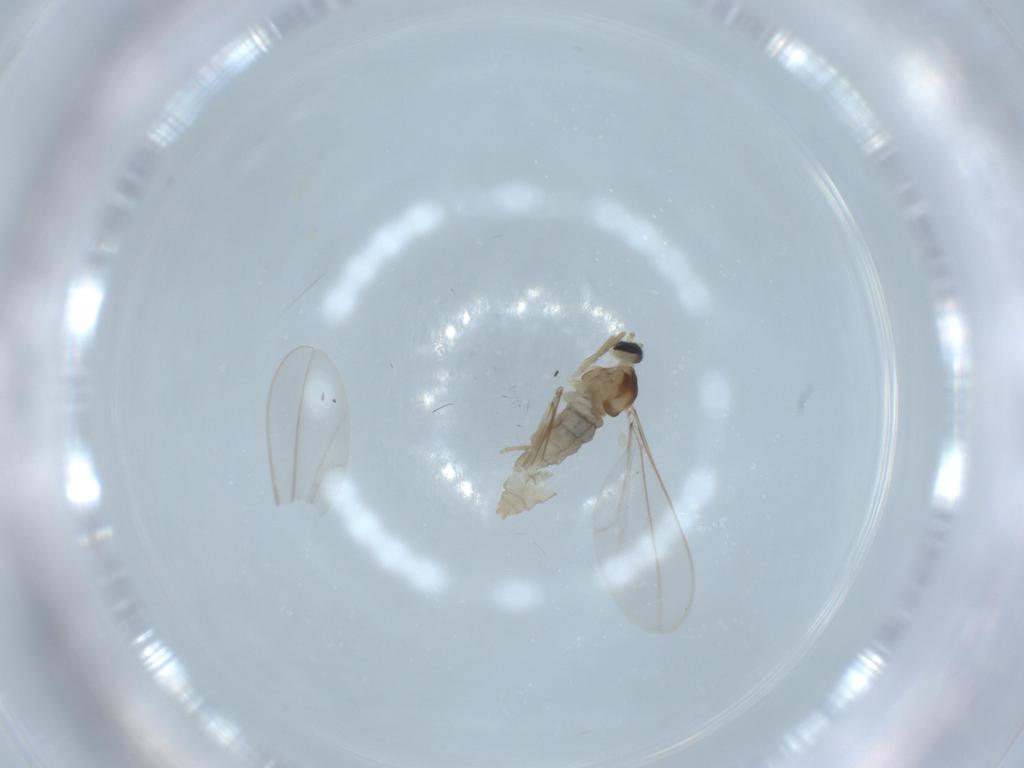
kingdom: Animalia
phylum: Arthropoda
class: Insecta
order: Diptera
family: Cecidomyiidae
